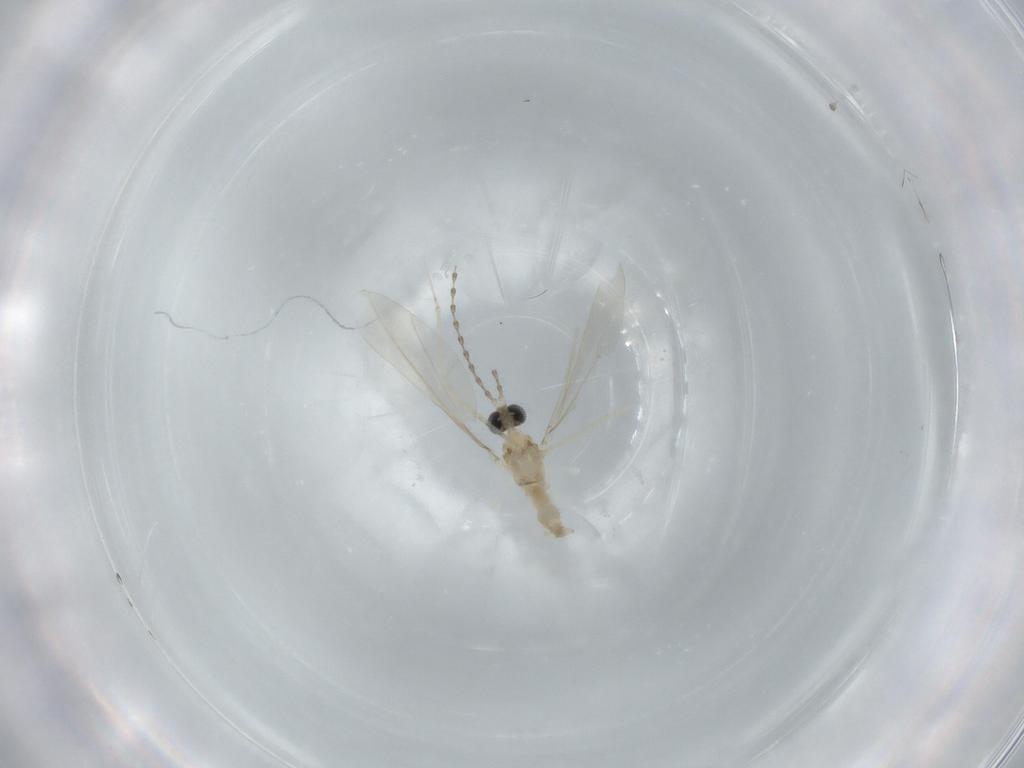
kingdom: Animalia
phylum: Arthropoda
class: Insecta
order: Diptera
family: Cecidomyiidae
